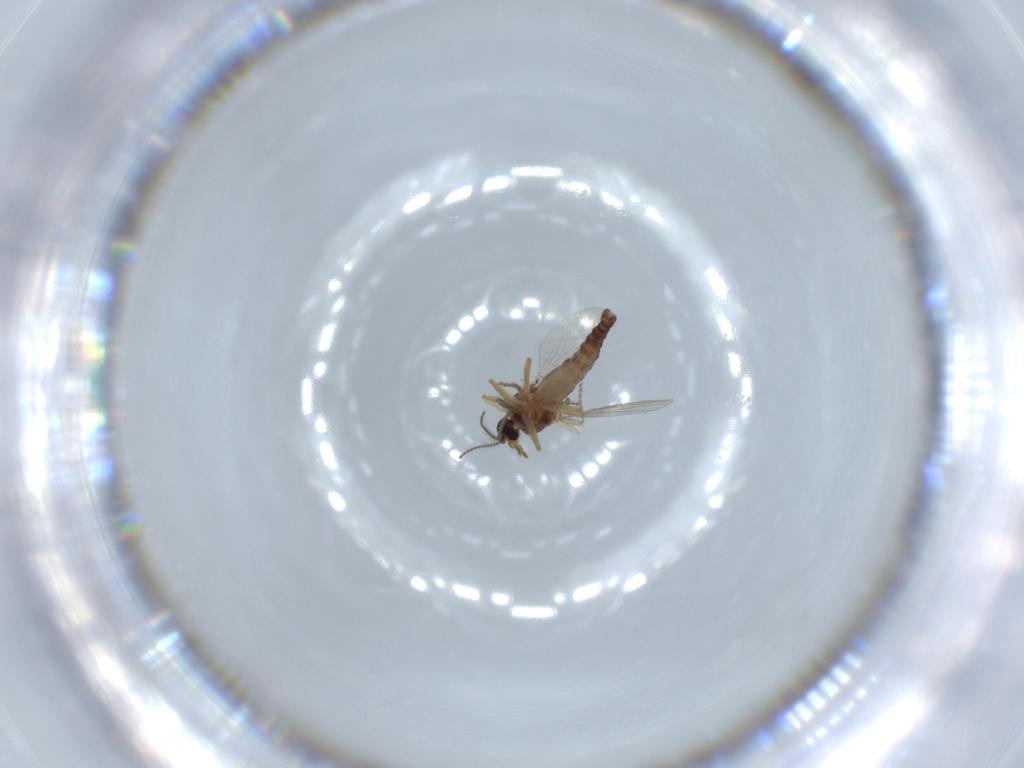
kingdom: Animalia
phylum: Arthropoda
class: Insecta
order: Diptera
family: Ceratopogonidae
